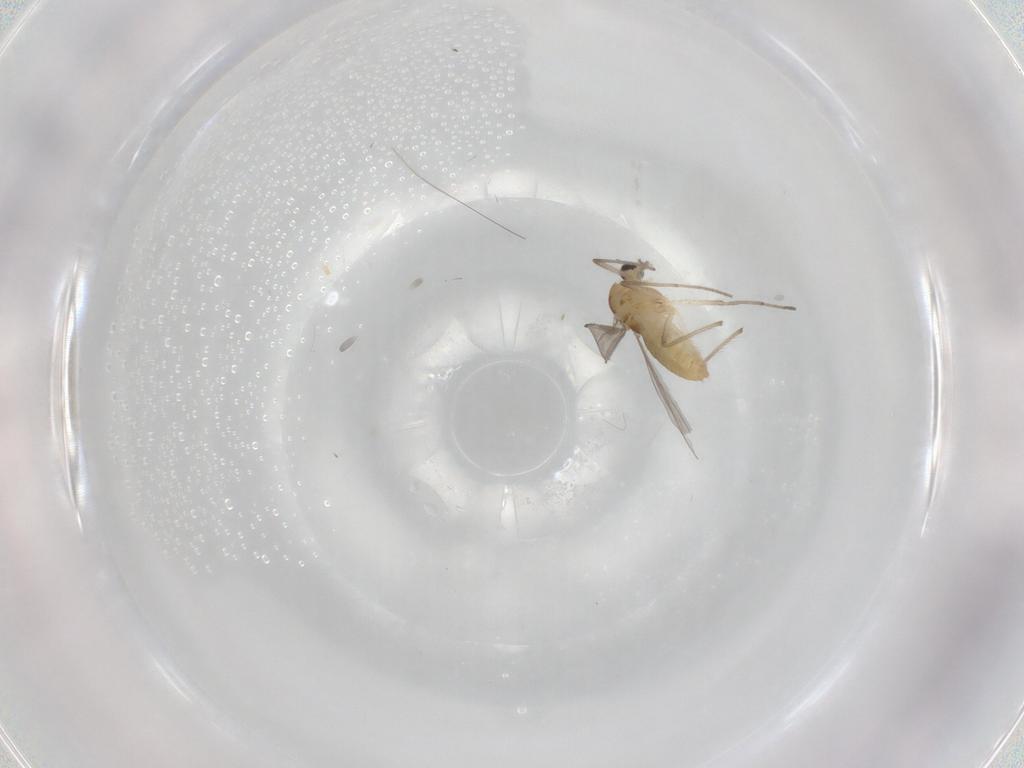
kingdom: Animalia
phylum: Arthropoda
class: Insecta
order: Diptera
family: Chironomidae
